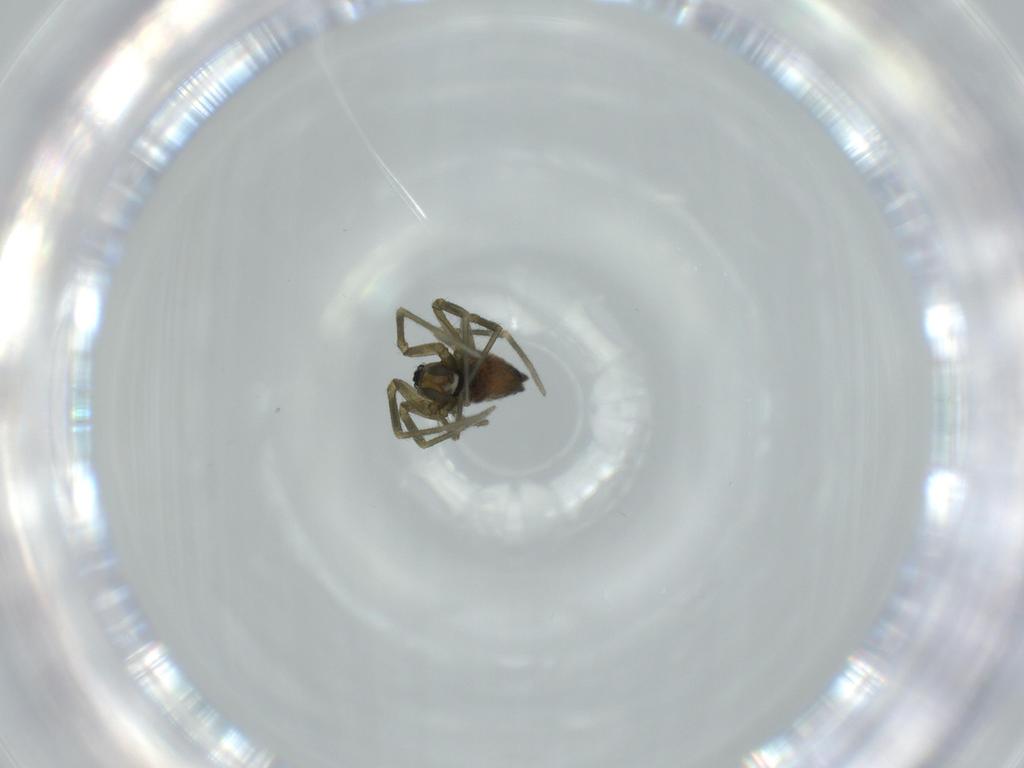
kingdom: Animalia
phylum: Arthropoda
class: Arachnida
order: Araneae
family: Linyphiidae
